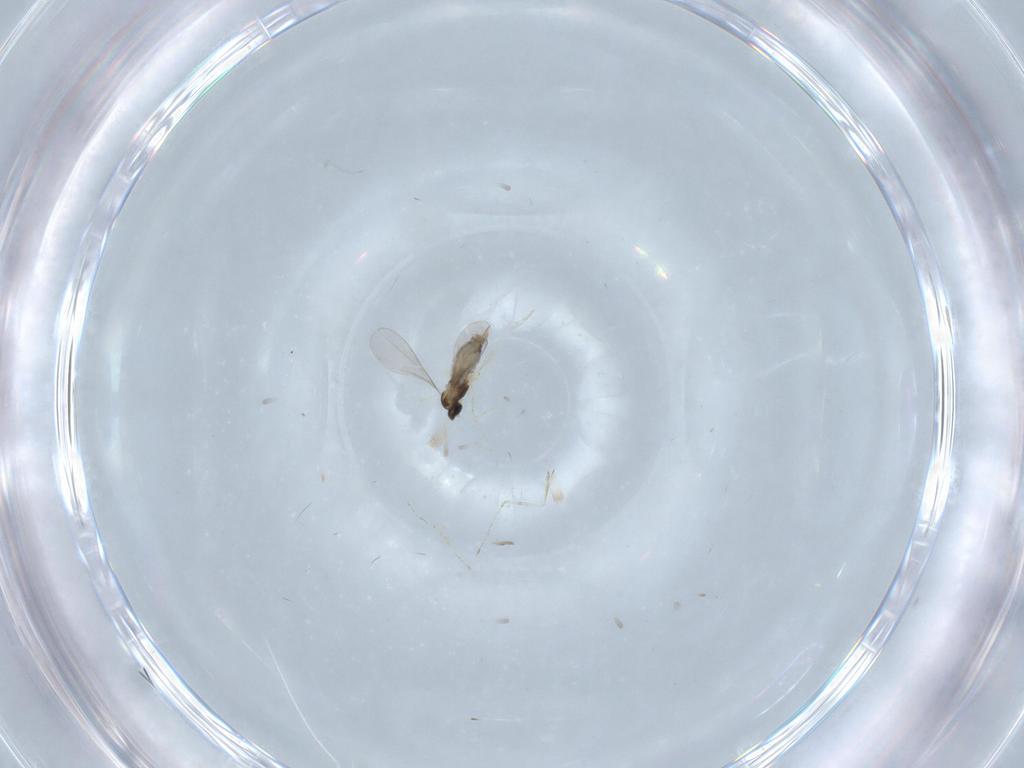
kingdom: Animalia
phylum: Arthropoda
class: Insecta
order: Diptera
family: Cecidomyiidae
